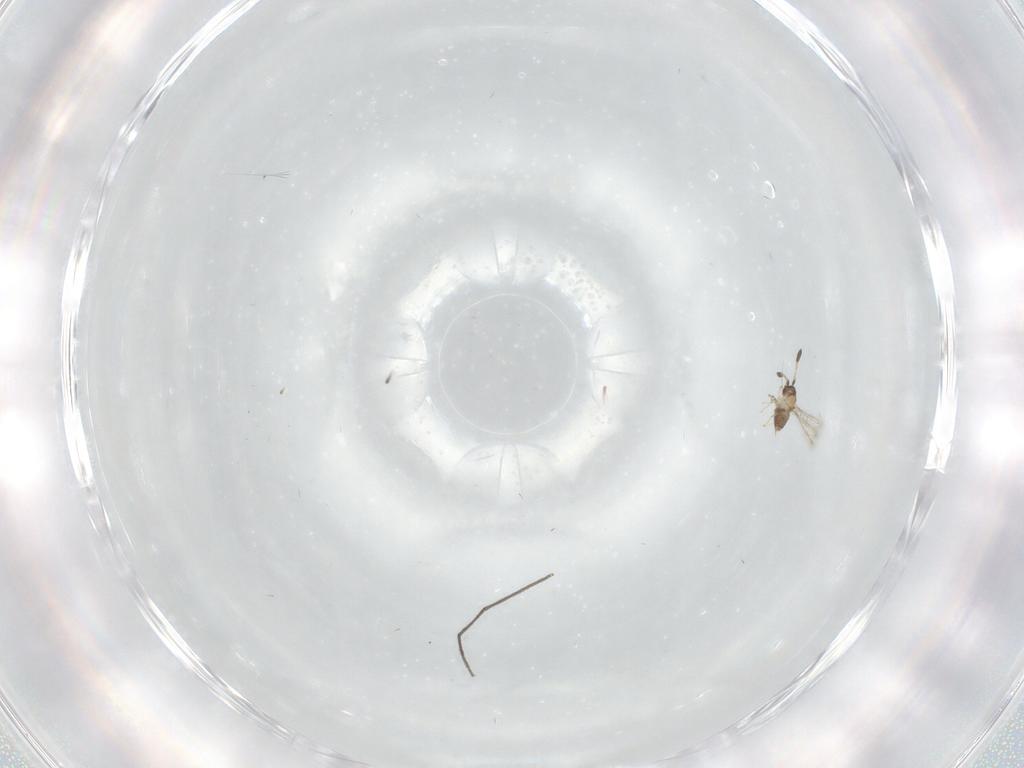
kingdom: Animalia
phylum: Arthropoda
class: Insecta
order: Hymenoptera
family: Mymaridae
